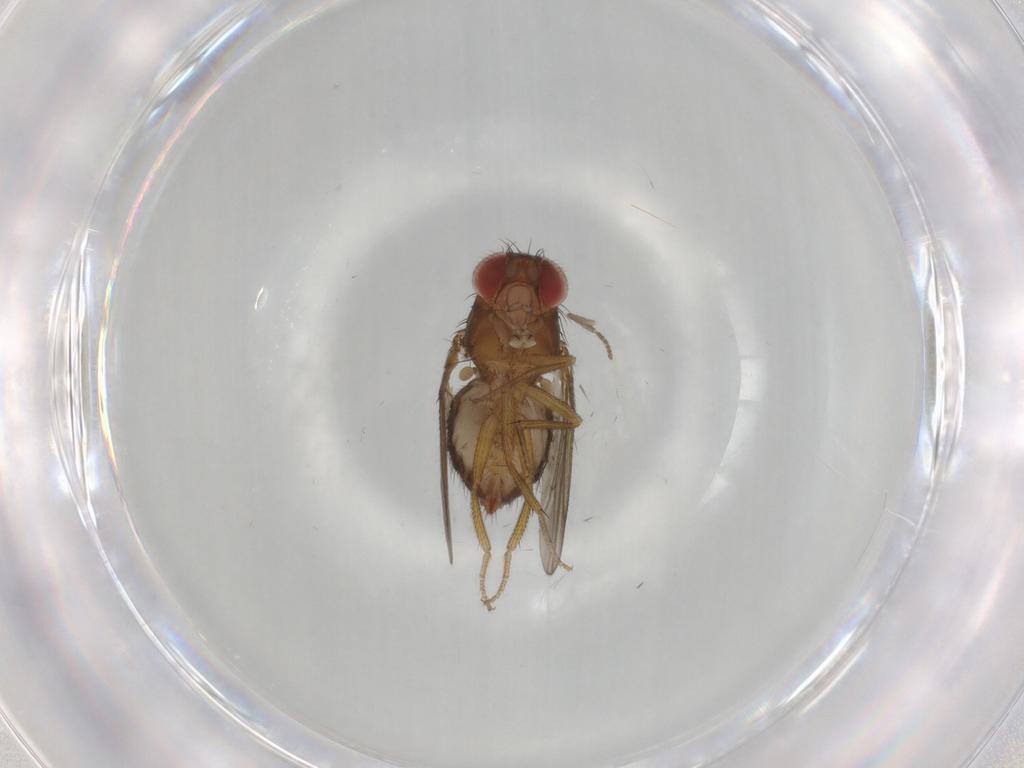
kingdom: Animalia
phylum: Arthropoda
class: Insecta
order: Diptera
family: Drosophilidae
